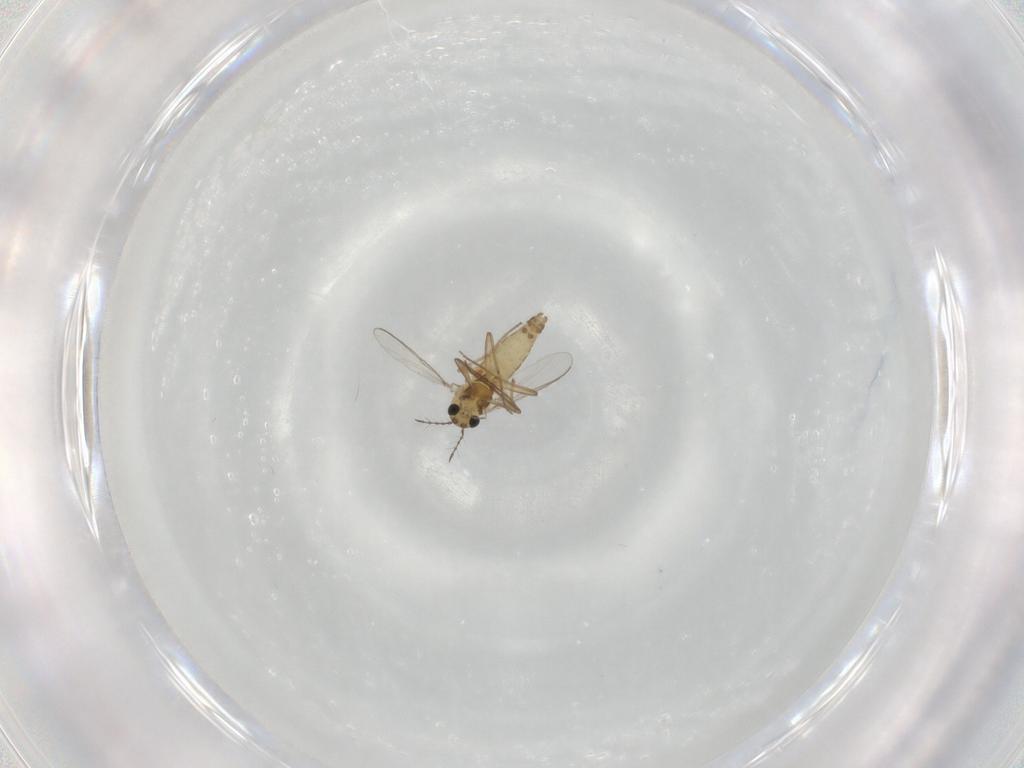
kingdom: Animalia
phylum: Arthropoda
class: Insecta
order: Diptera
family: Chironomidae
